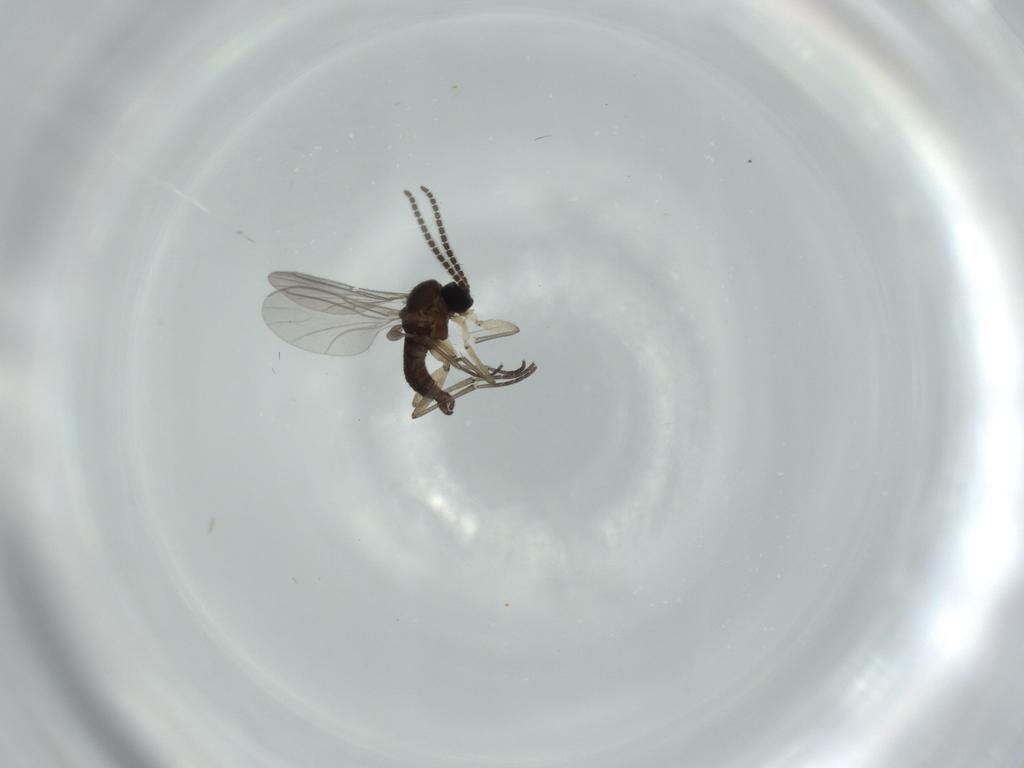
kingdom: Animalia
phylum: Arthropoda
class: Insecta
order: Diptera
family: Sciaridae
